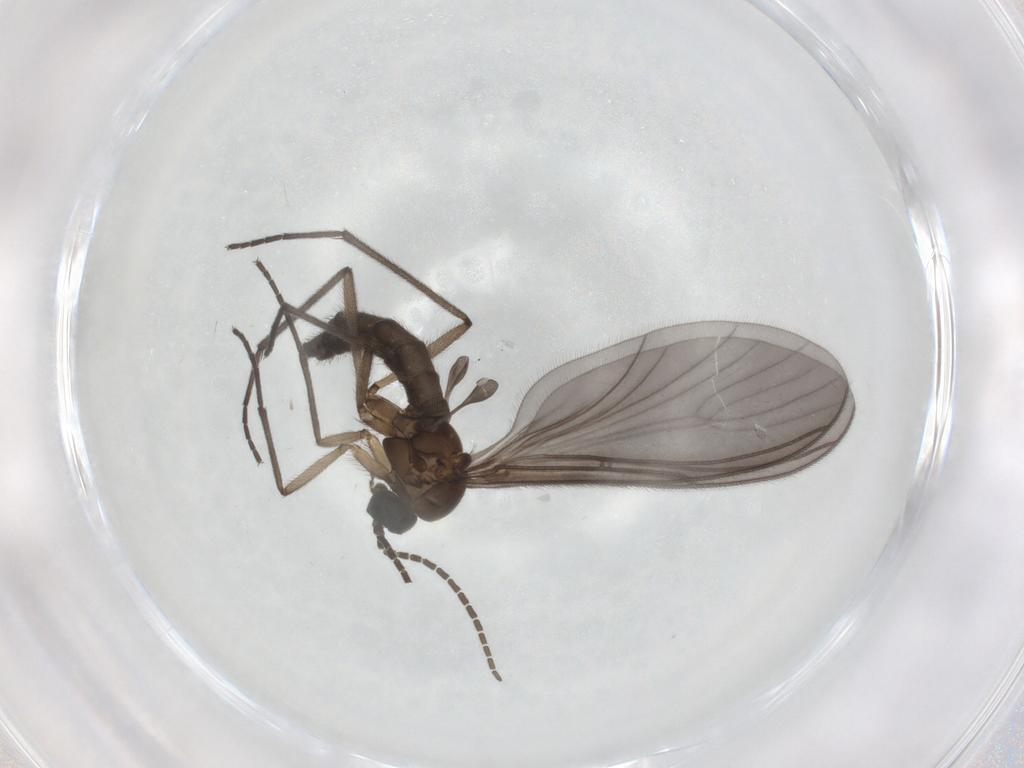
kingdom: Animalia
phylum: Arthropoda
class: Insecta
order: Diptera
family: Sciaridae
